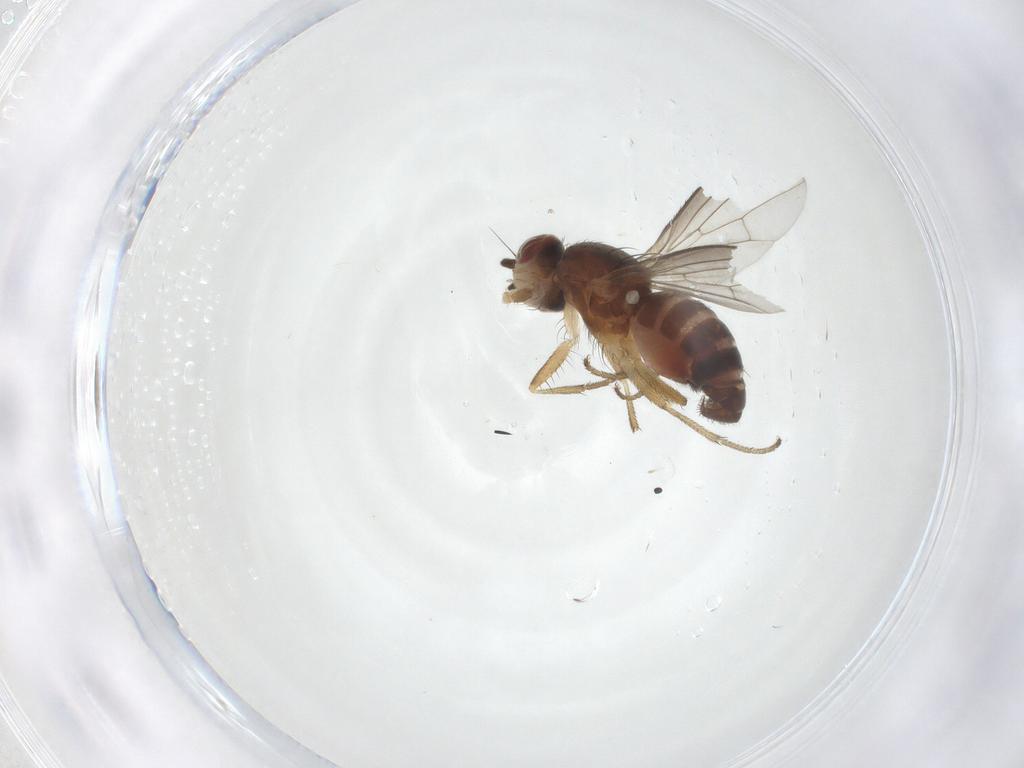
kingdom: Animalia
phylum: Arthropoda
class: Insecta
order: Diptera
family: Heleomyzidae
